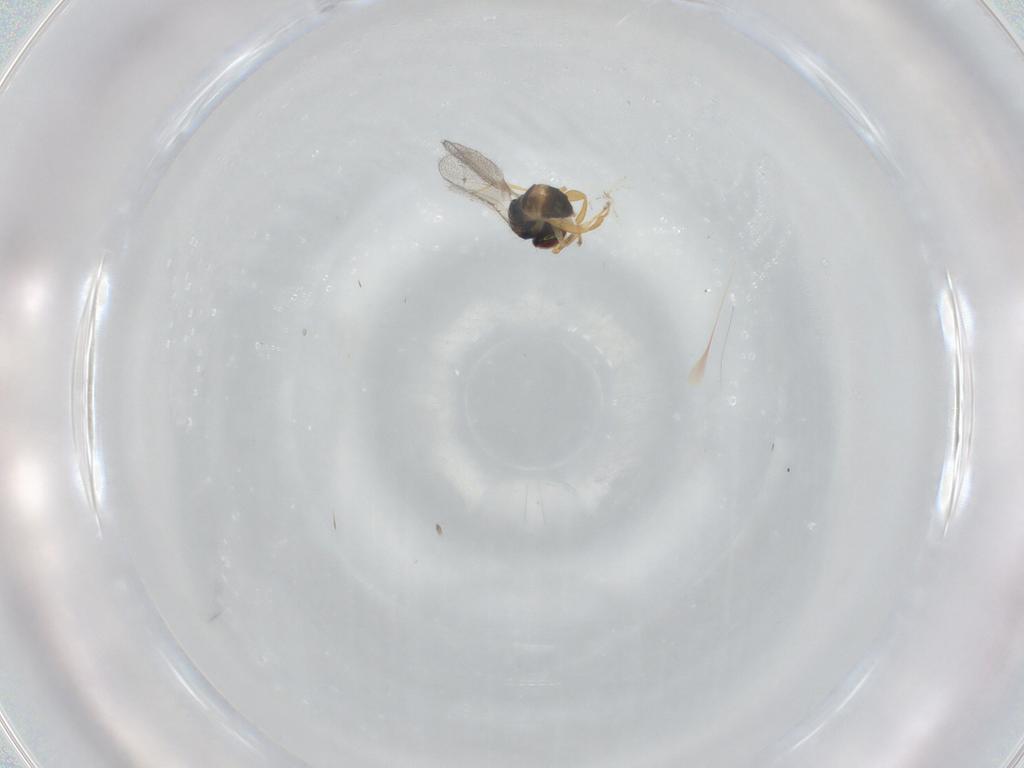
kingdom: Animalia
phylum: Arthropoda
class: Insecta
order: Hymenoptera
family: Torymidae
